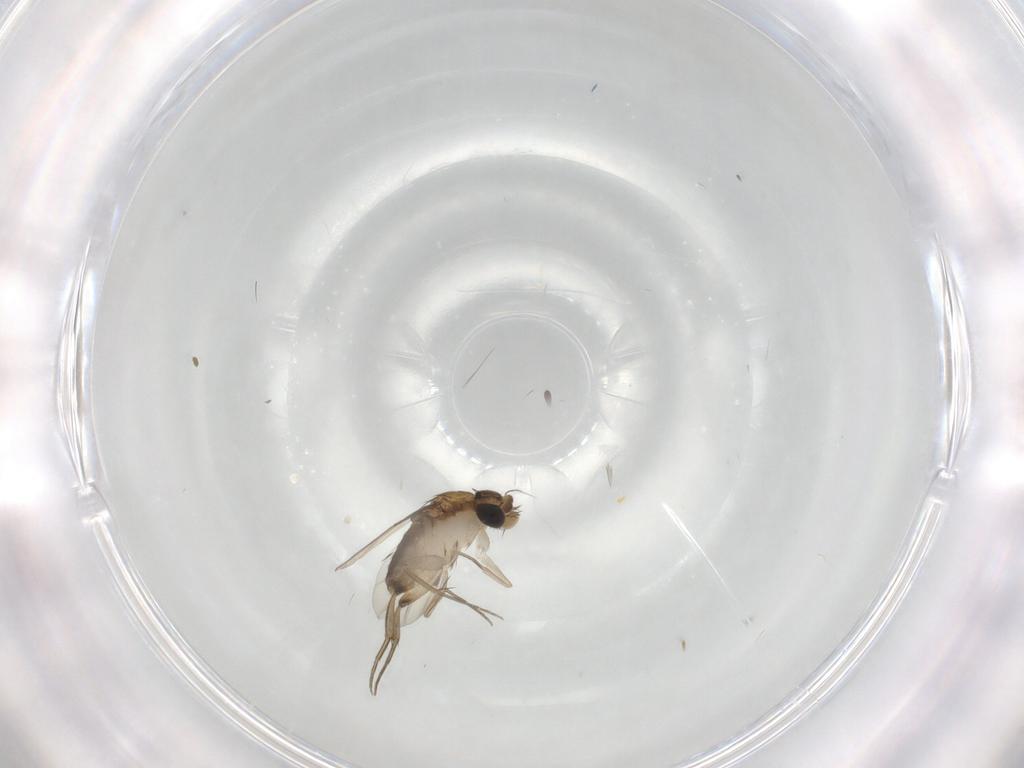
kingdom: Animalia
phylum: Arthropoda
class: Insecta
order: Diptera
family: Phoridae
